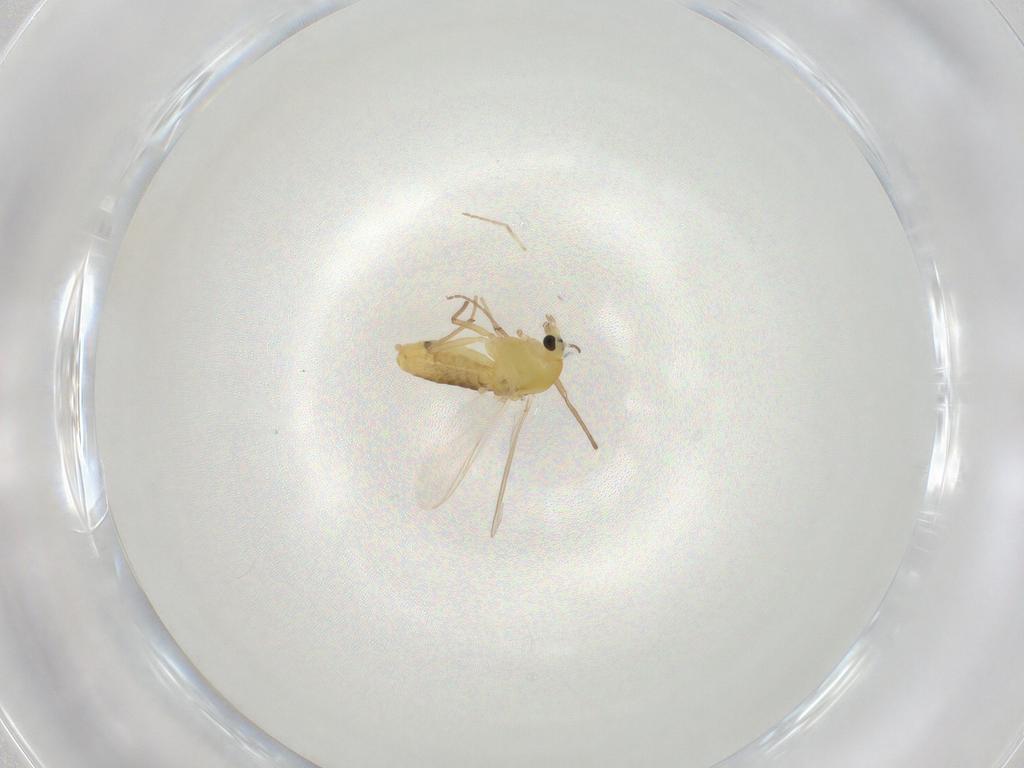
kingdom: Animalia
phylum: Arthropoda
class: Insecta
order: Diptera
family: Chironomidae
